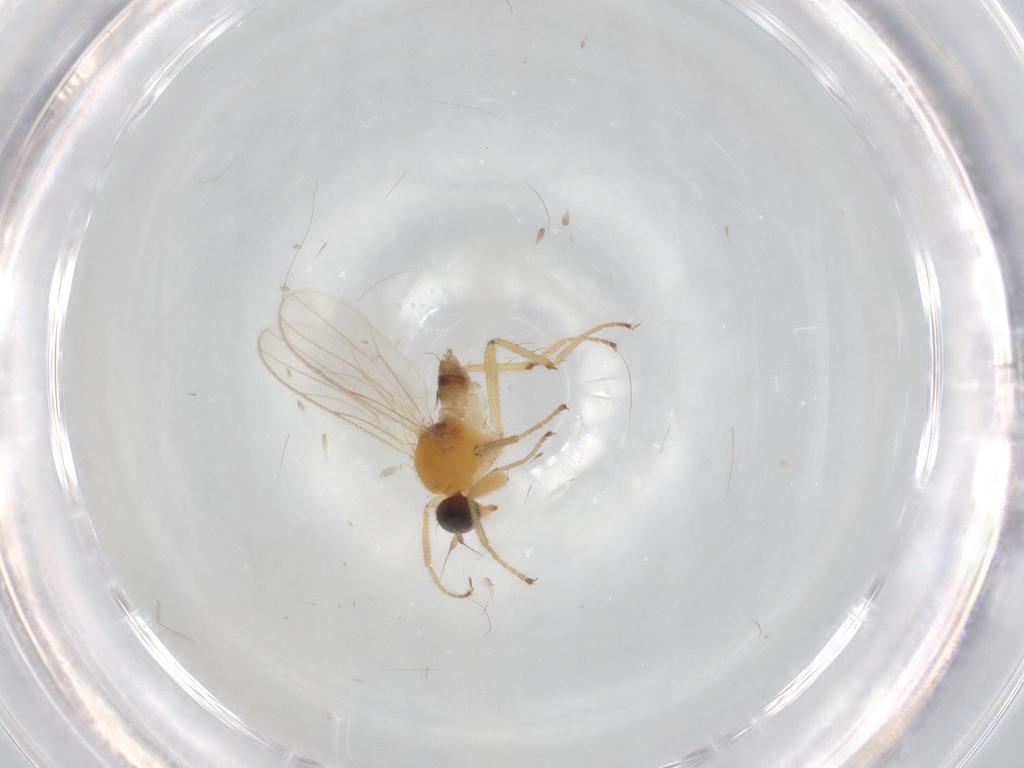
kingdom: Animalia
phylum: Arthropoda
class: Insecta
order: Diptera
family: Hybotidae
